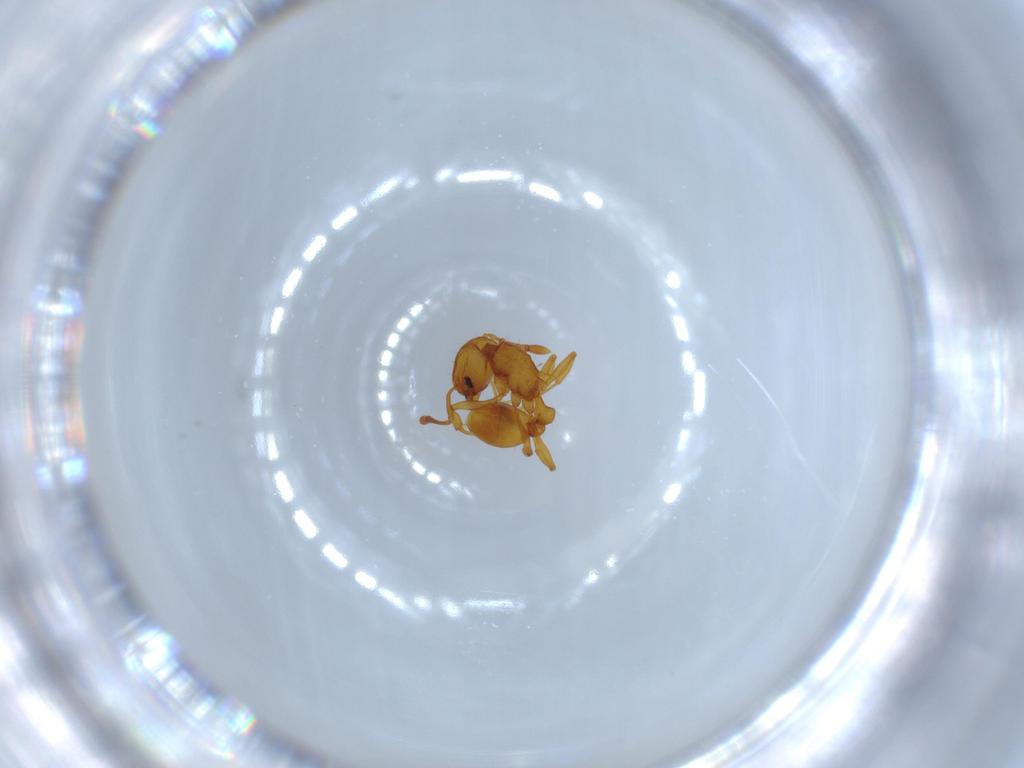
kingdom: Animalia
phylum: Arthropoda
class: Insecta
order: Hymenoptera
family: Formicidae
